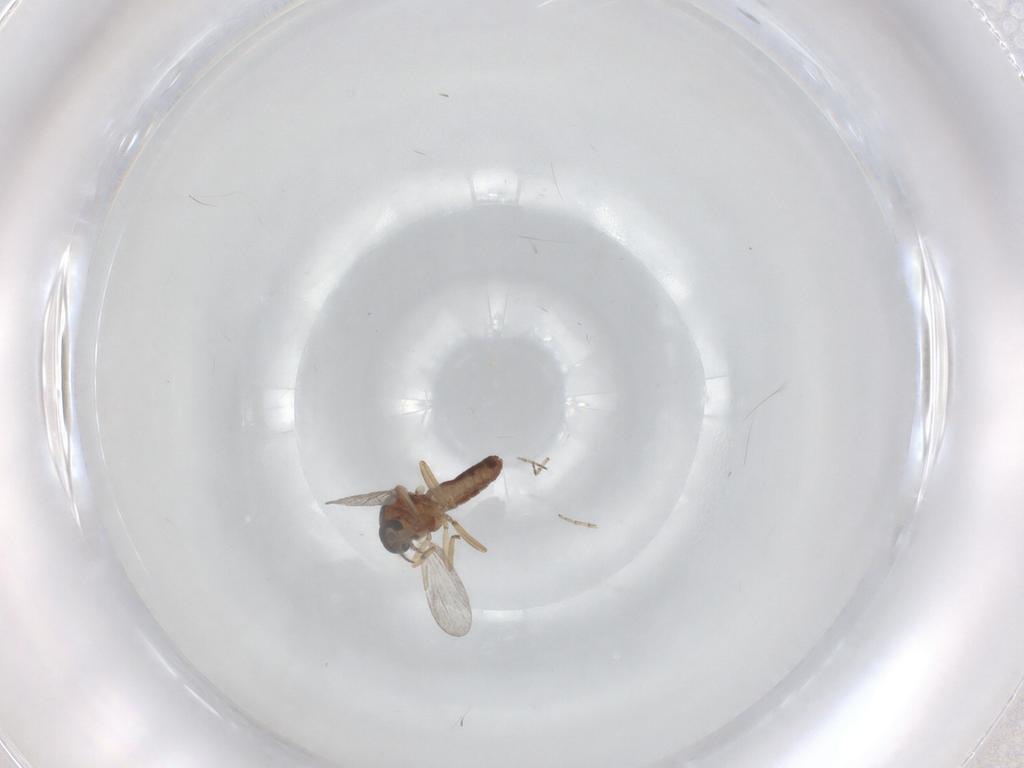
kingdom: Animalia
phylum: Arthropoda
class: Insecta
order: Diptera
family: Ceratopogonidae
